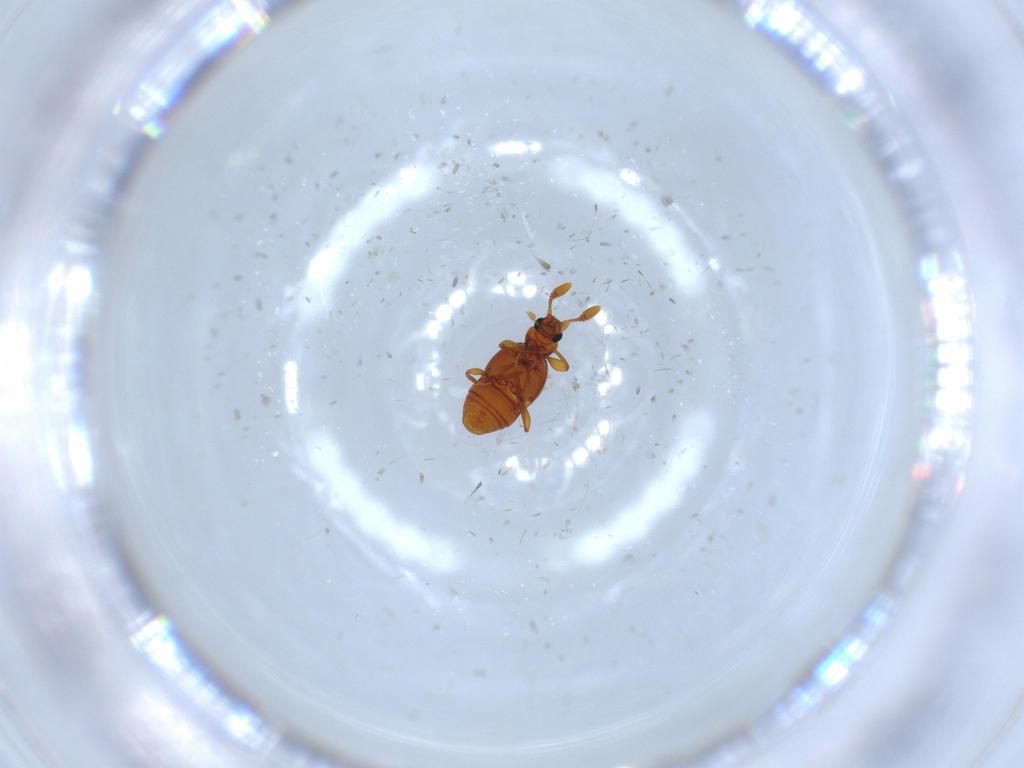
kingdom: Animalia
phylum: Arthropoda
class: Insecta
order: Coleoptera
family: Staphylinidae
